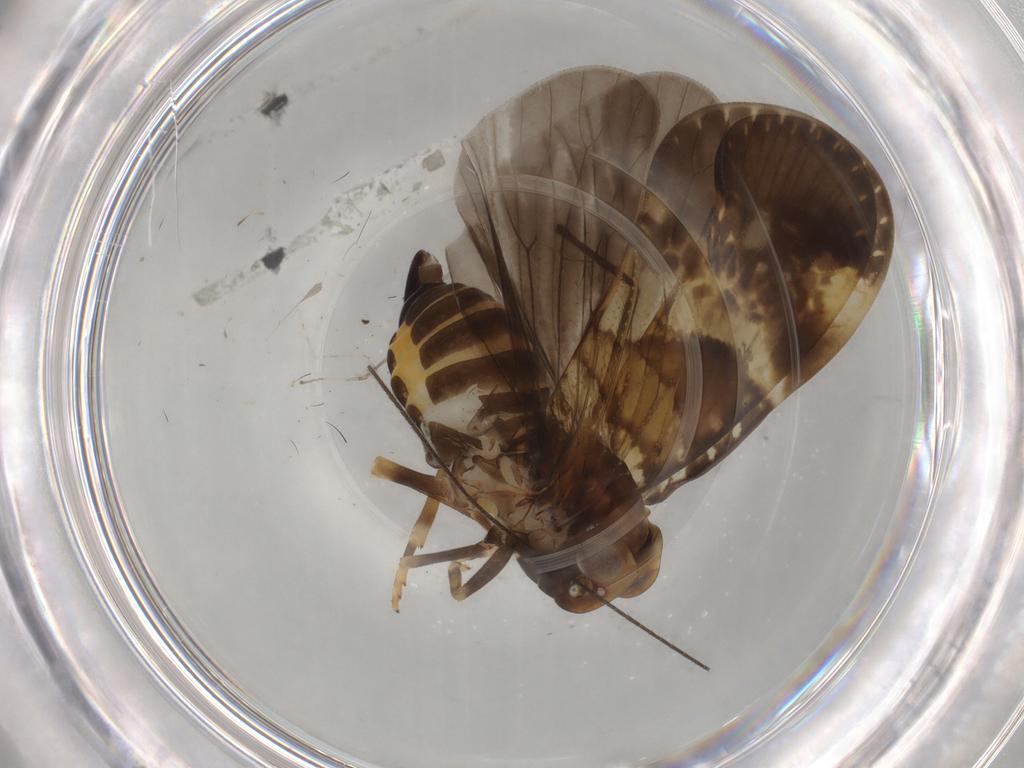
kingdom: Animalia
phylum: Arthropoda
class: Insecta
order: Hemiptera
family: Cixiidae
